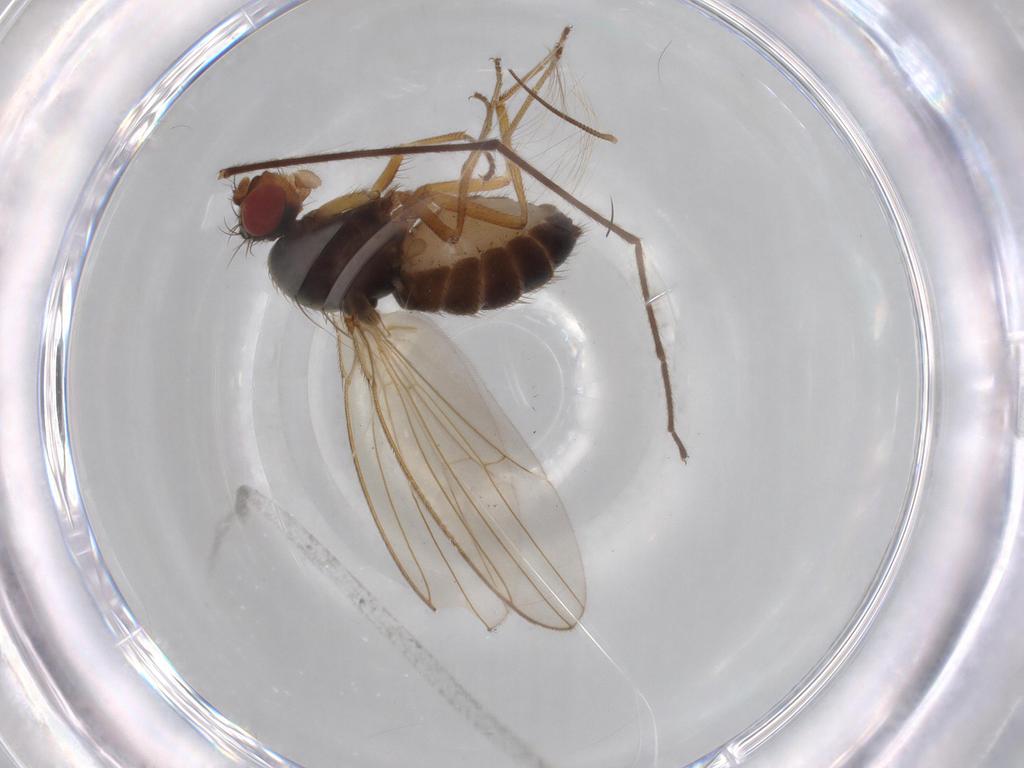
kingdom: Animalia
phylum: Arthropoda
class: Insecta
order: Diptera
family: Drosophilidae
